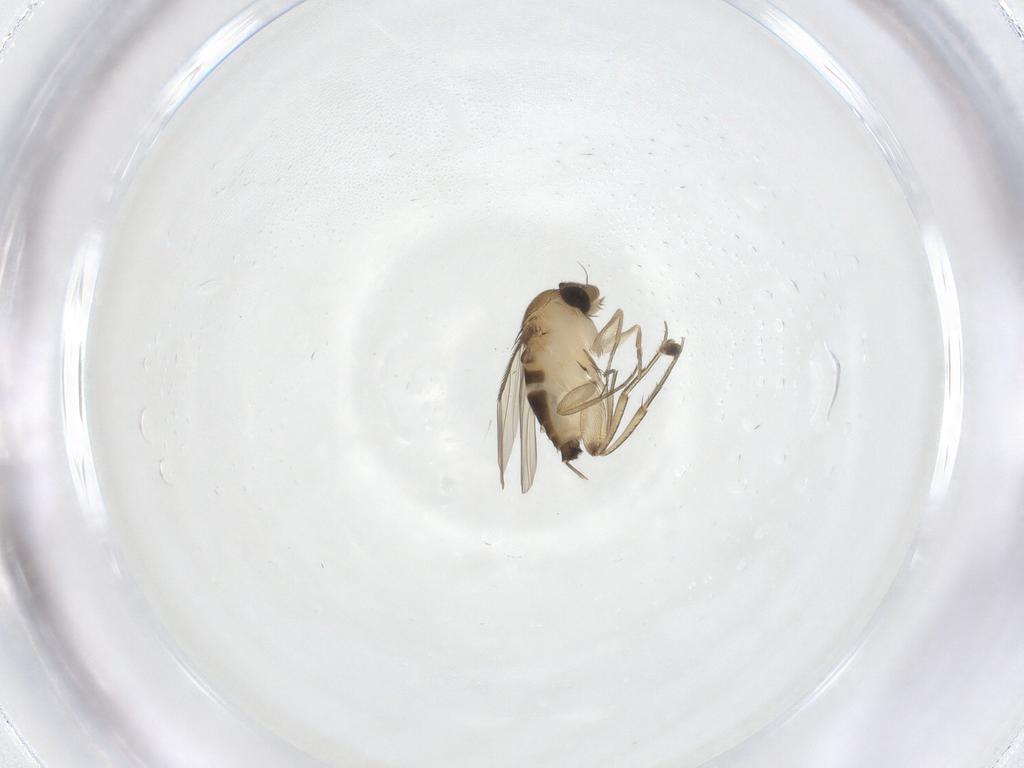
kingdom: Animalia
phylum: Arthropoda
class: Insecta
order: Diptera
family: Phoridae
